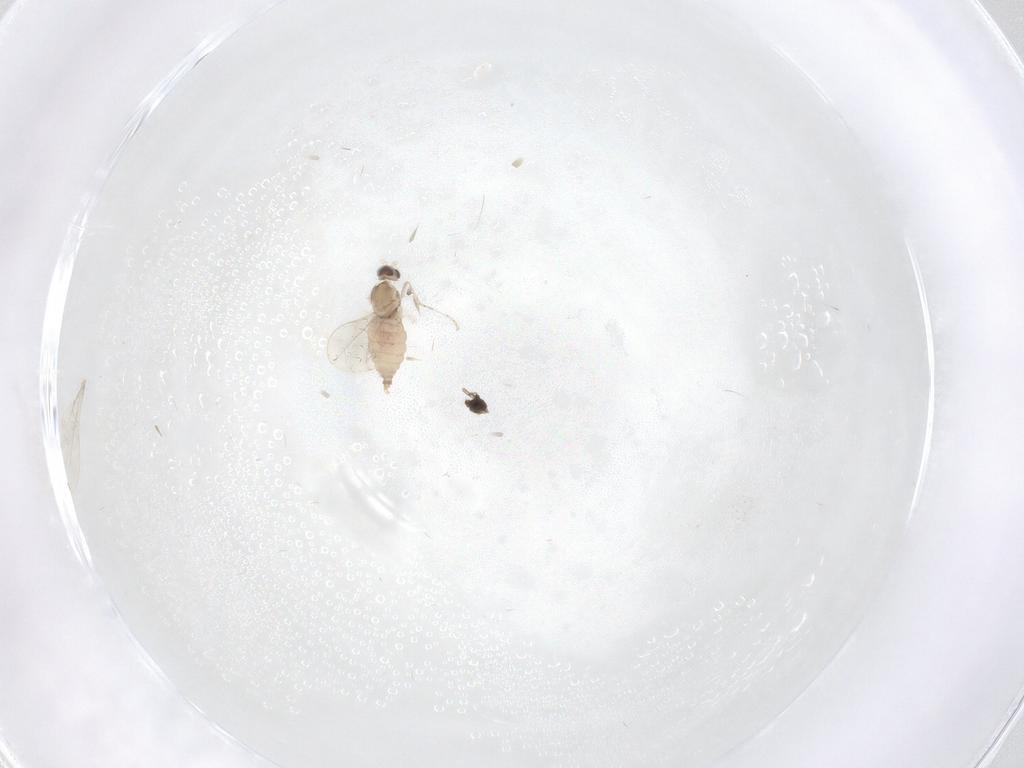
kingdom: Animalia
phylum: Arthropoda
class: Insecta
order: Diptera
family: Cecidomyiidae
